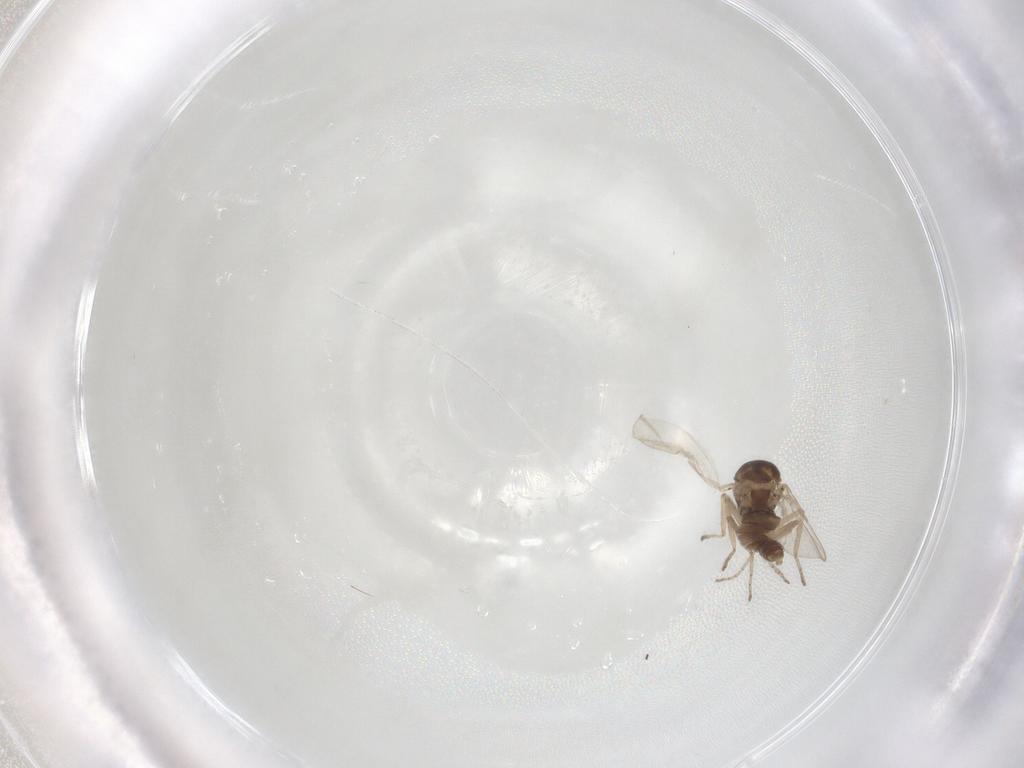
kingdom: Animalia
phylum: Arthropoda
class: Insecta
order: Diptera
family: Ceratopogonidae
